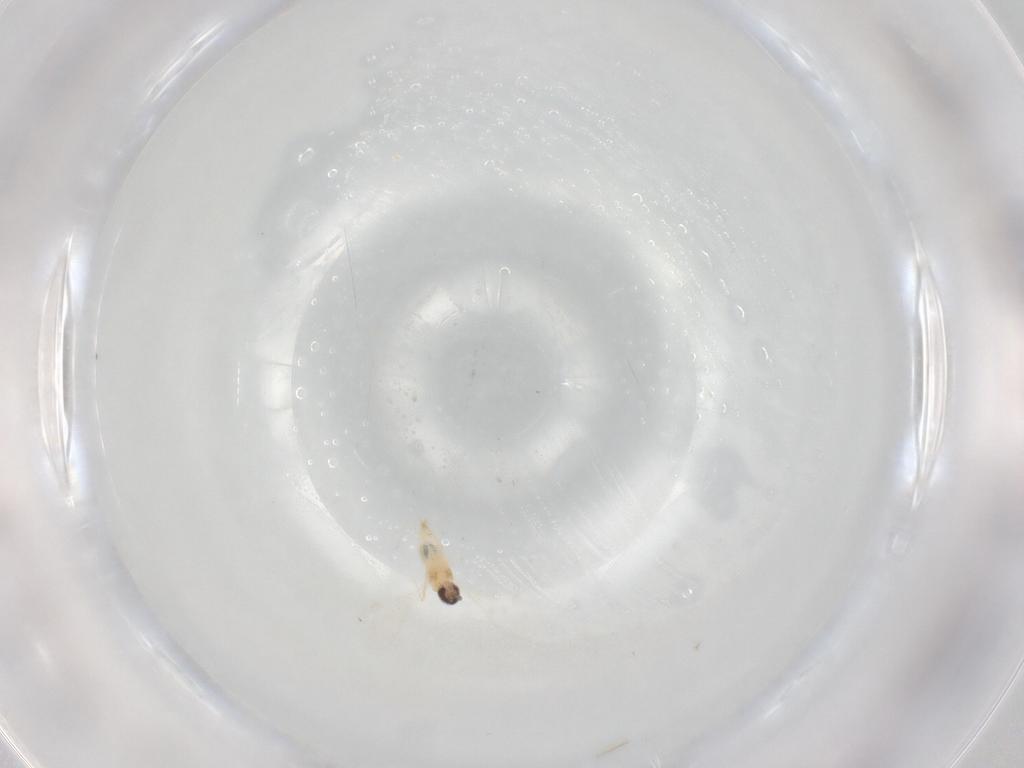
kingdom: Animalia
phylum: Arthropoda
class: Insecta
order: Diptera
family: Cecidomyiidae
